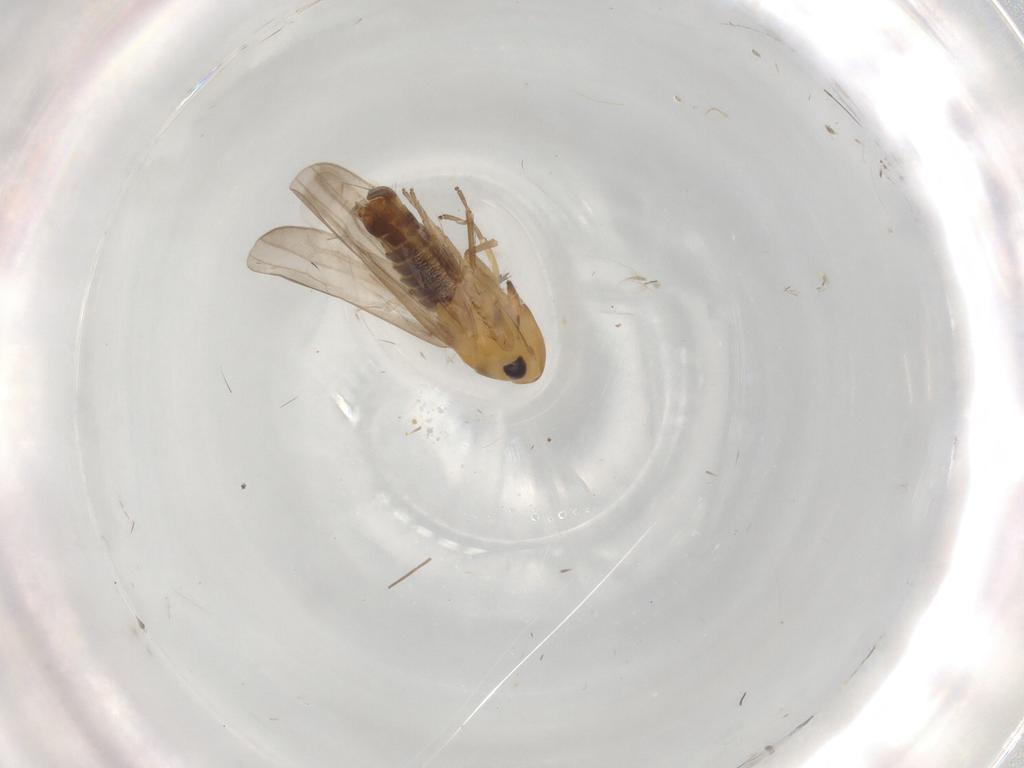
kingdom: Animalia
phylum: Arthropoda
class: Insecta
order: Hemiptera
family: Cicadellidae
